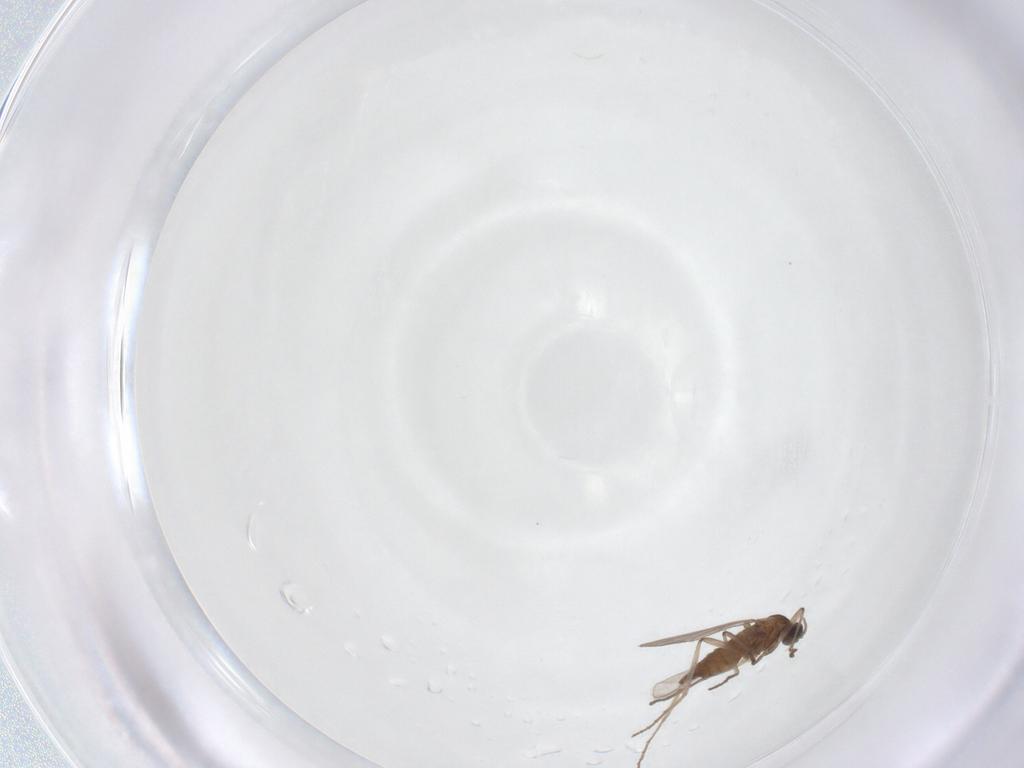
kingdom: Animalia
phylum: Arthropoda
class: Insecta
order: Diptera
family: Cecidomyiidae
